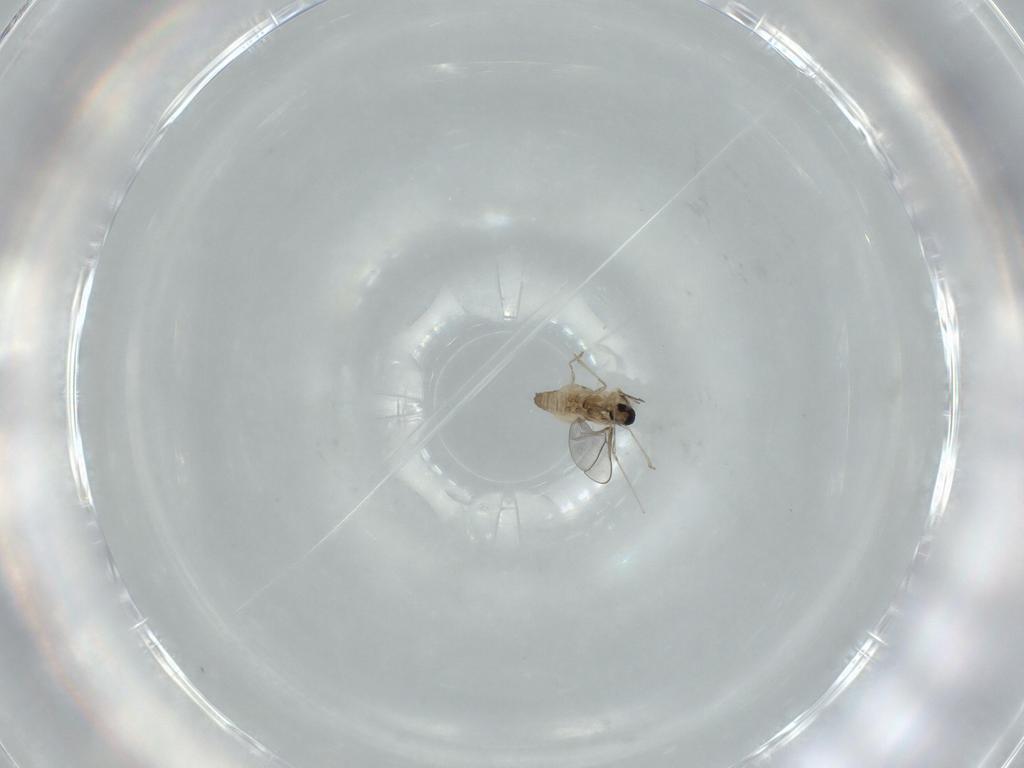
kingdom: Animalia
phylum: Arthropoda
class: Insecta
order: Diptera
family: Cecidomyiidae
